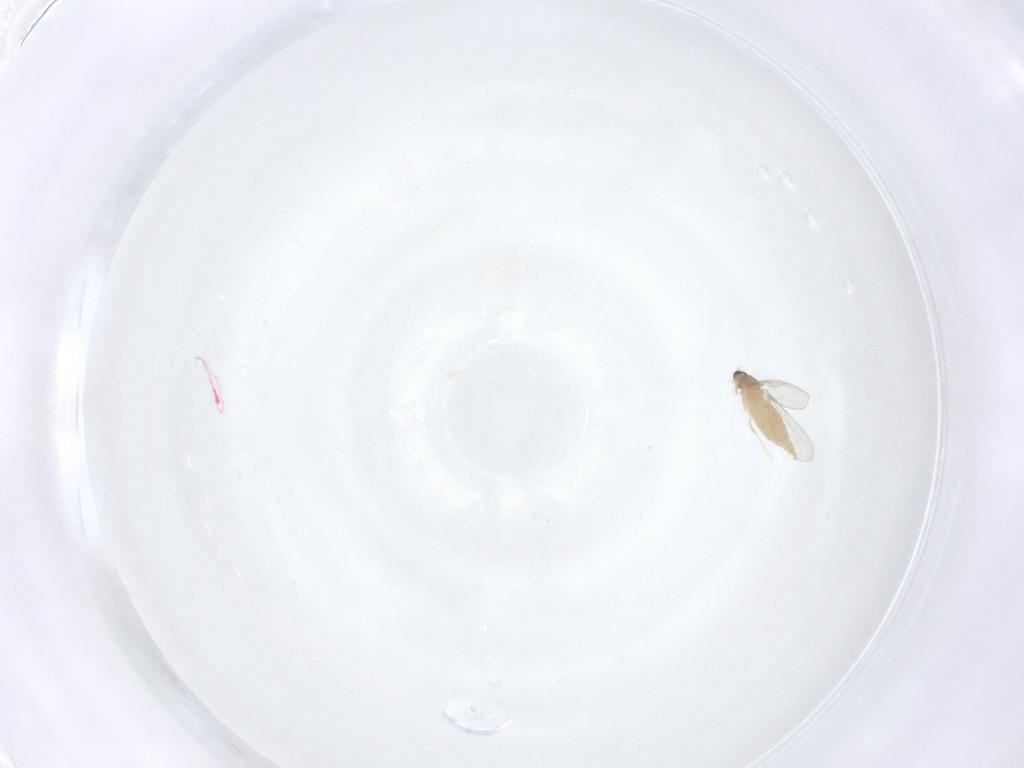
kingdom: Animalia
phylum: Arthropoda
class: Insecta
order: Diptera
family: Cecidomyiidae
